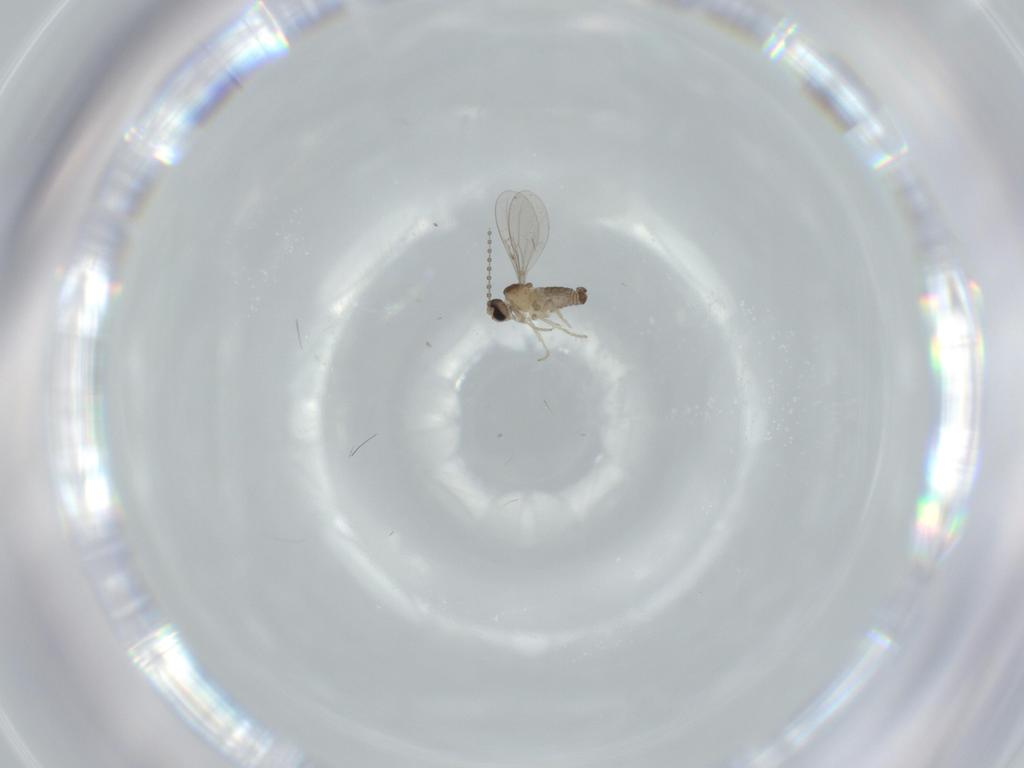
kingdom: Animalia
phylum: Arthropoda
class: Insecta
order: Diptera
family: Cecidomyiidae
